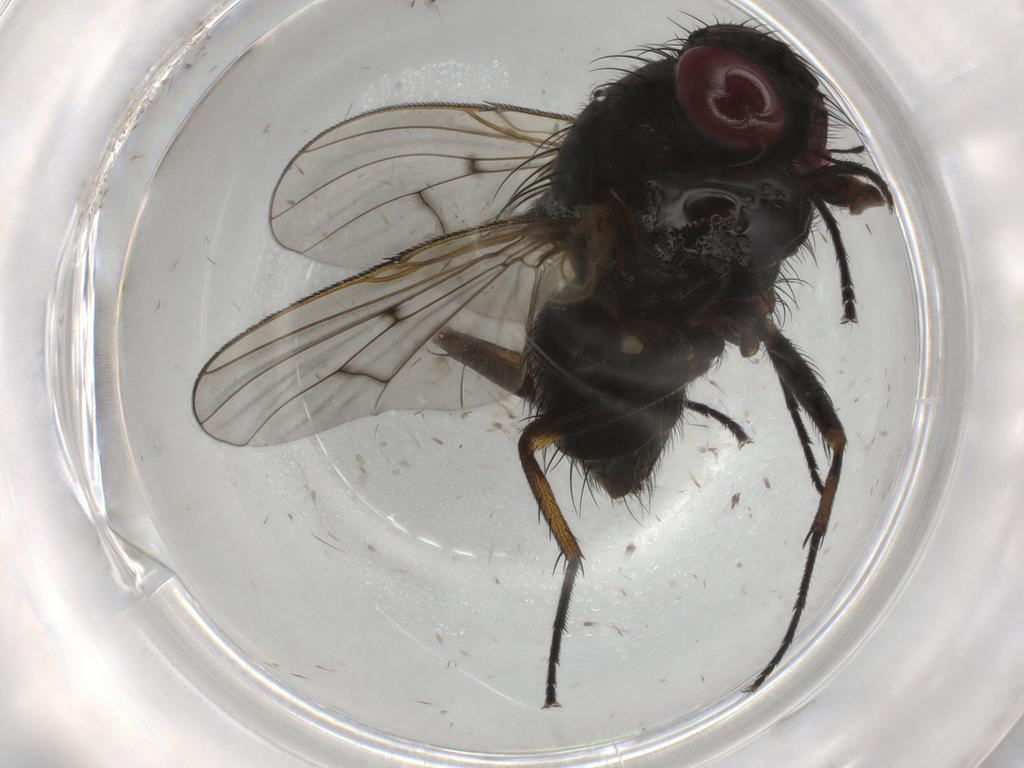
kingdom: Animalia
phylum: Arthropoda
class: Insecta
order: Diptera
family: Muscidae
